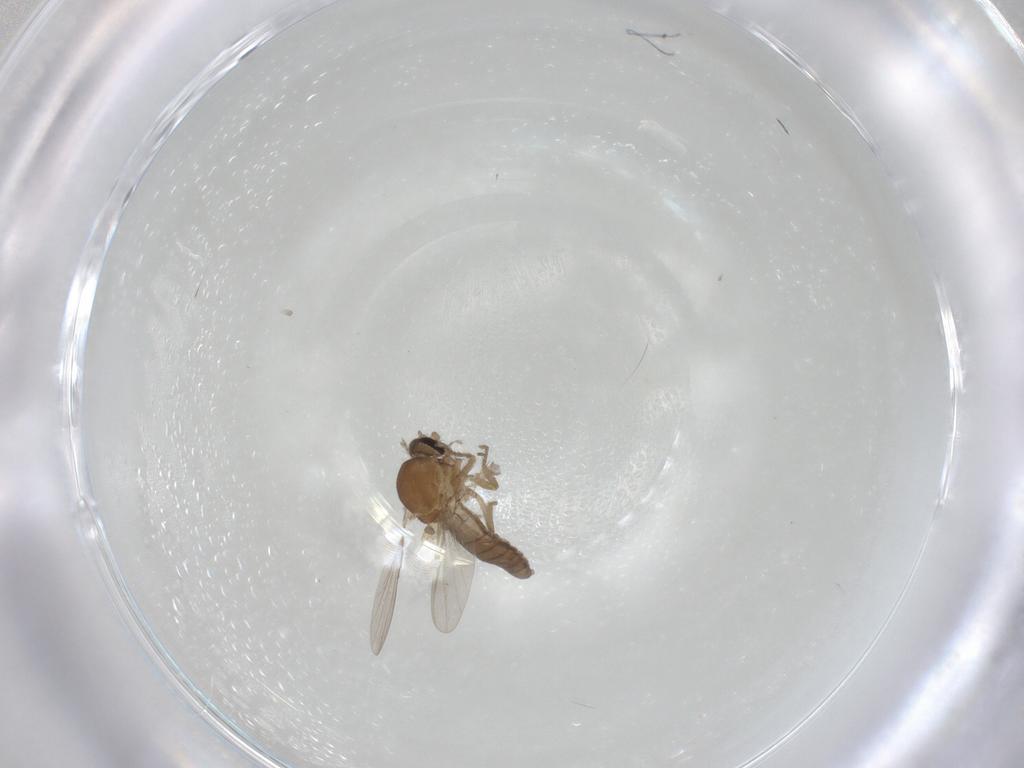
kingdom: Animalia
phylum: Arthropoda
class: Insecta
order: Diptera
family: Ceratopogonidae
